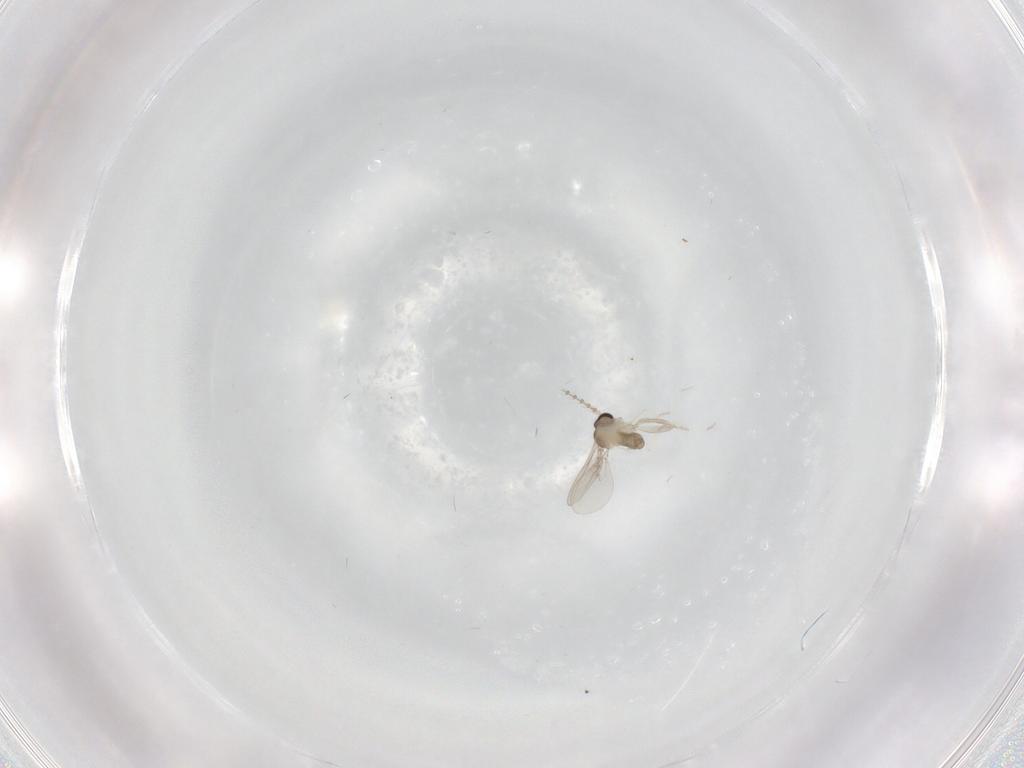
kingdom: Animalia
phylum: Arthropoda
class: Insecta
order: Diptera
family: Cecidomyiidae
